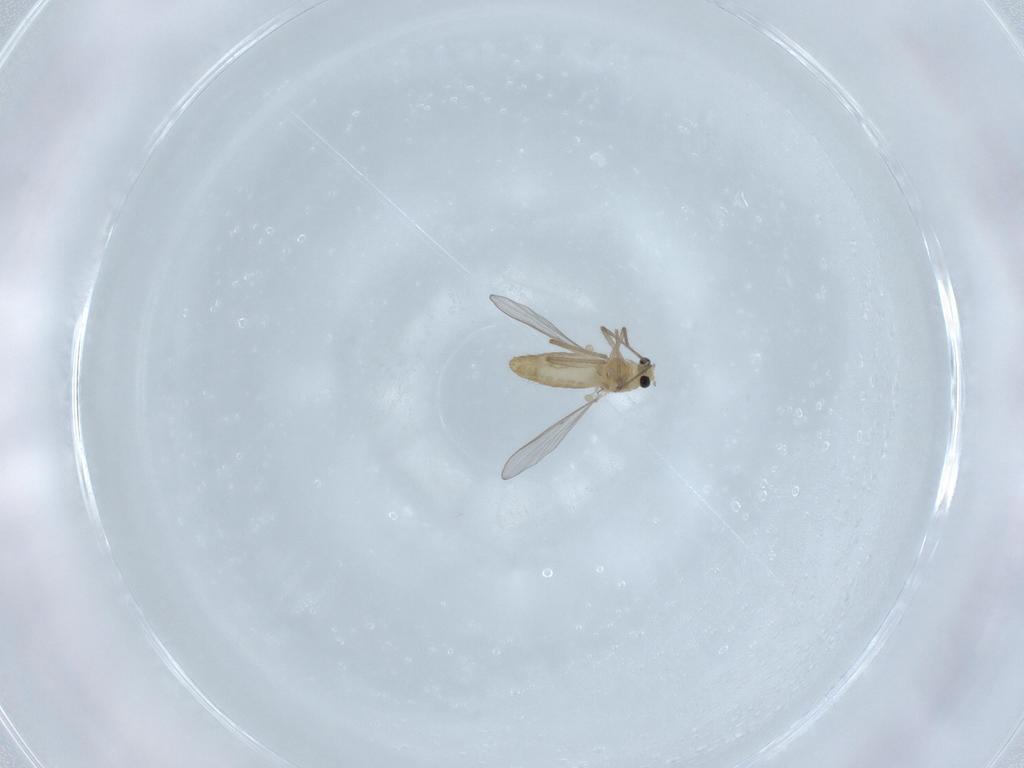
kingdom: Animalia
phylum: Arthropoda
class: Insecta
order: Diptera
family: Chironomidae
